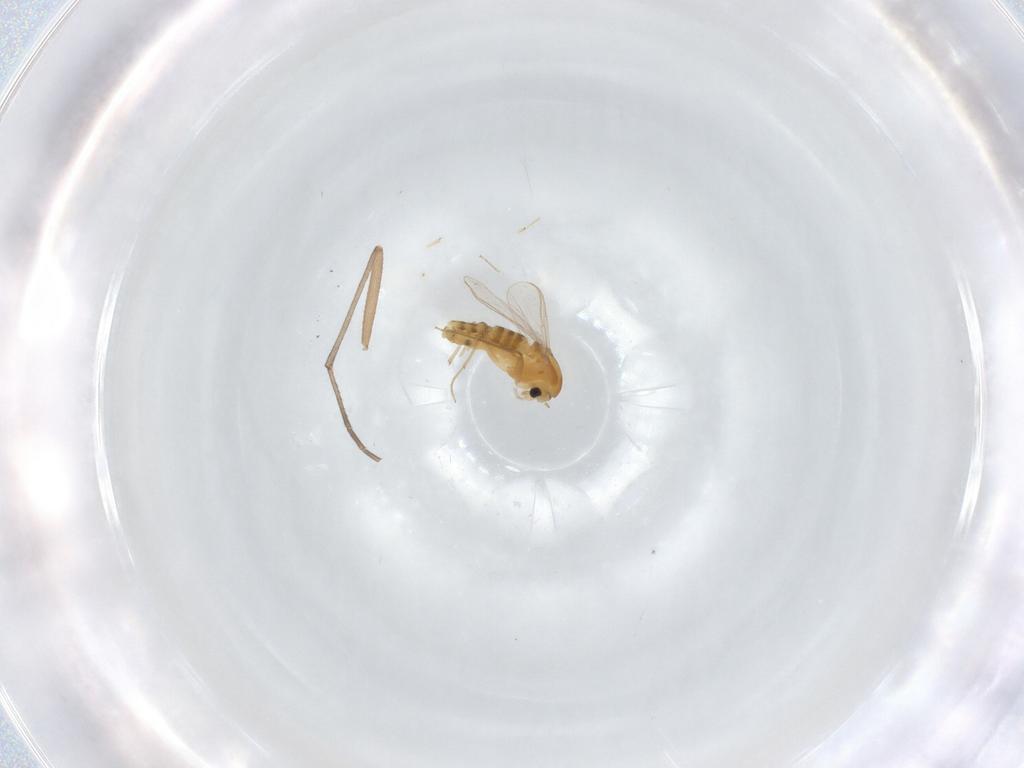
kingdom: Animalia
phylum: Arthropoda
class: Insecta
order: Diptera
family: Chironomidae
